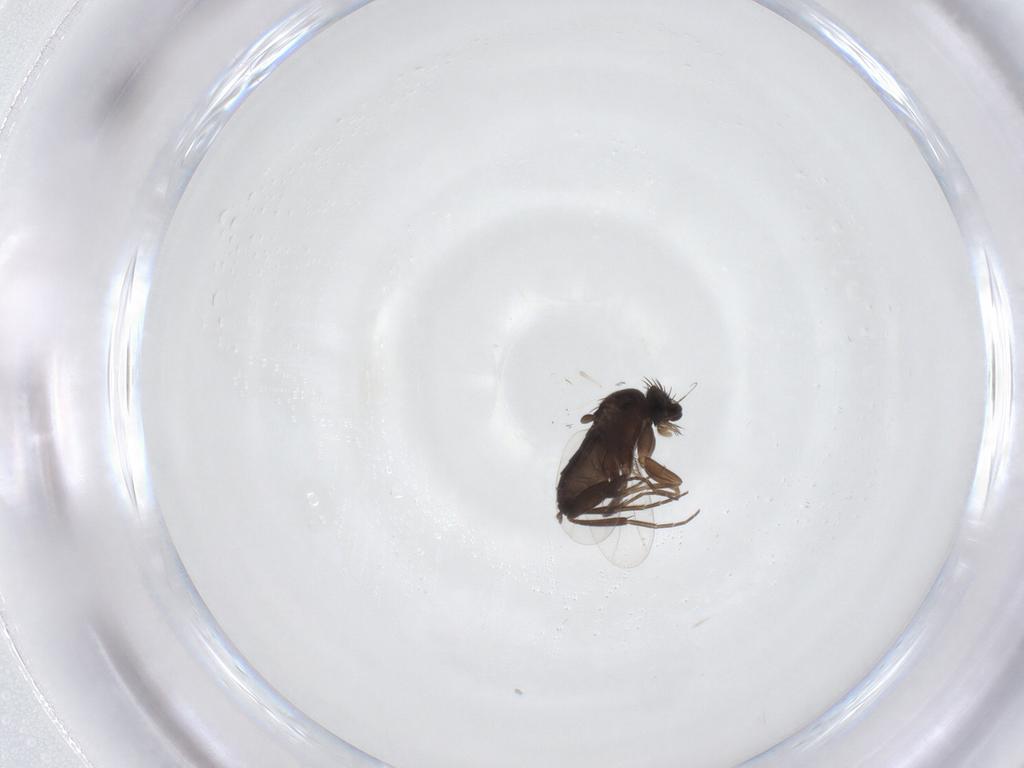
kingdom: Animalia
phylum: Arthropoda
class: Insecta
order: Diptera
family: Phoridae
